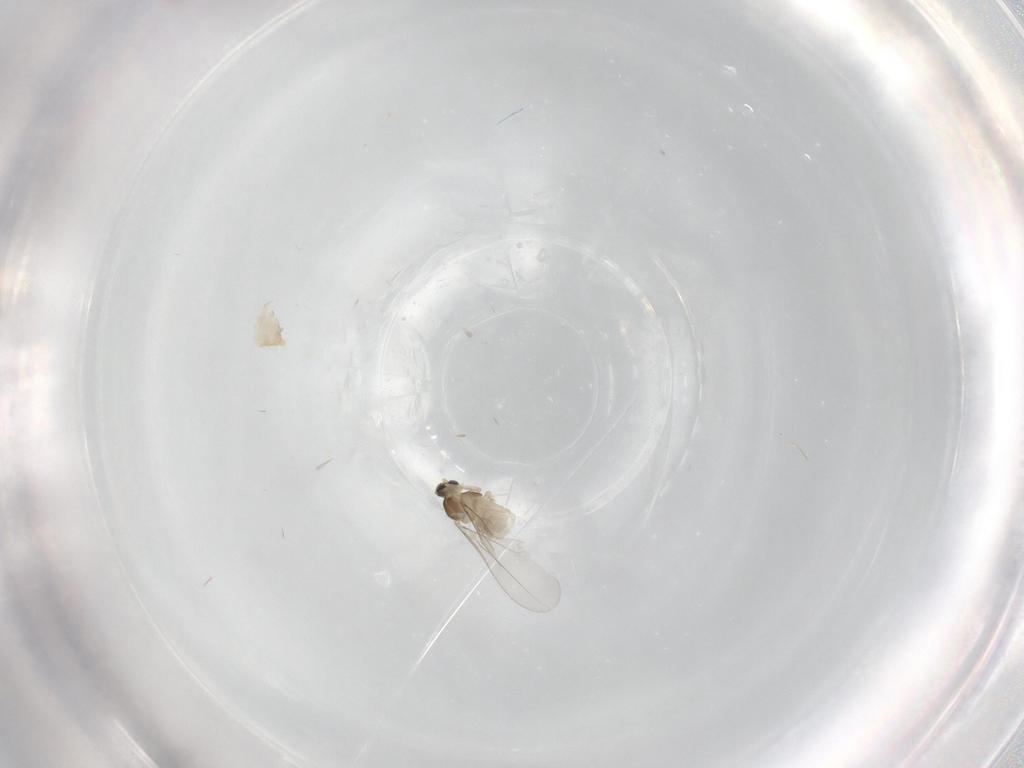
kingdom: Animalia
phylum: Arthropoda
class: Insecta
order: Diptera
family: Cecidomyiidae
